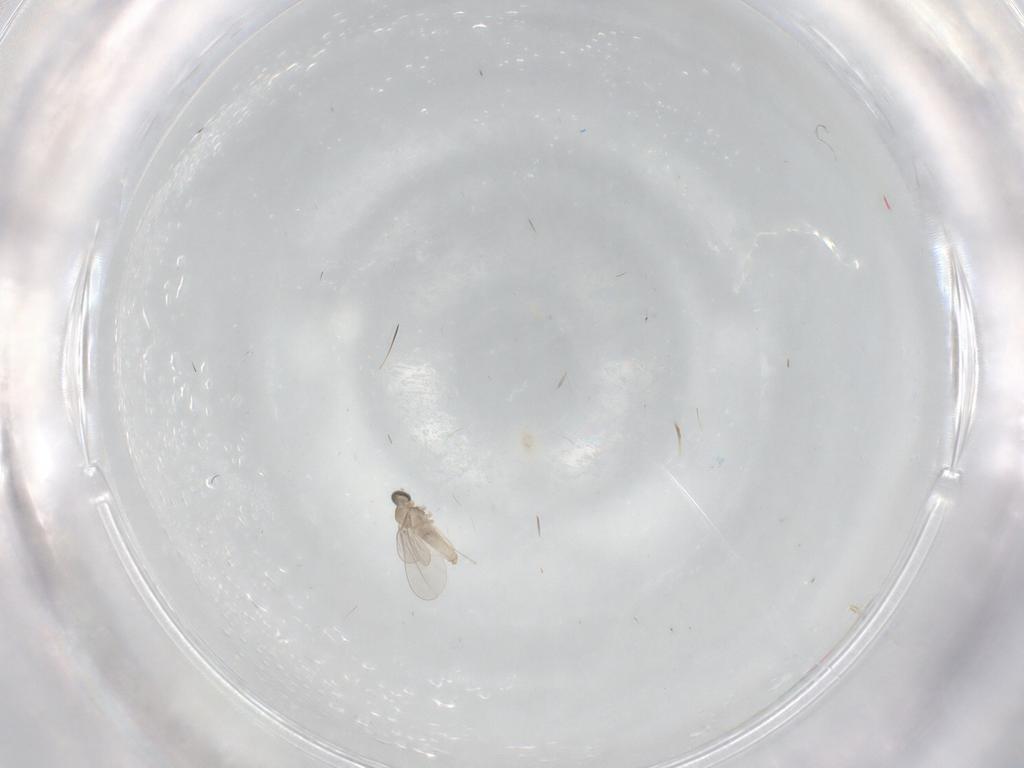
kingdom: Animalia
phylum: Arthropoda
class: Insecta
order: Diptera
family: Cecidomyiidae
